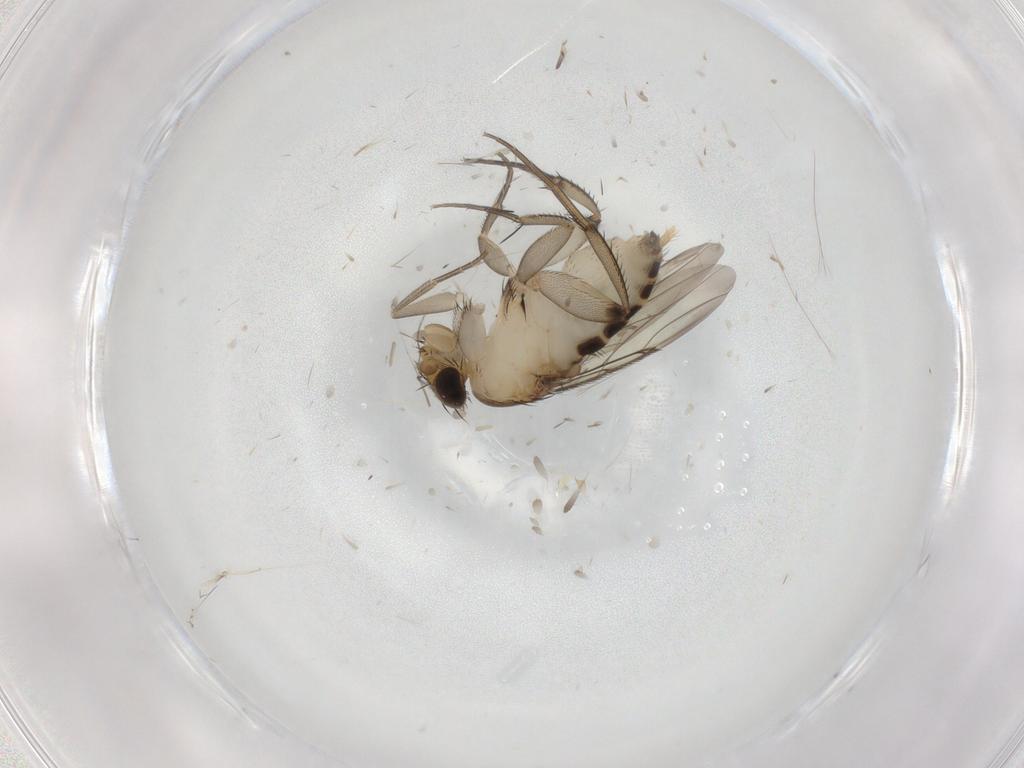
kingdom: Animalia
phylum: Arthropoda
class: Insecta
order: Diptera
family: Phoridae
